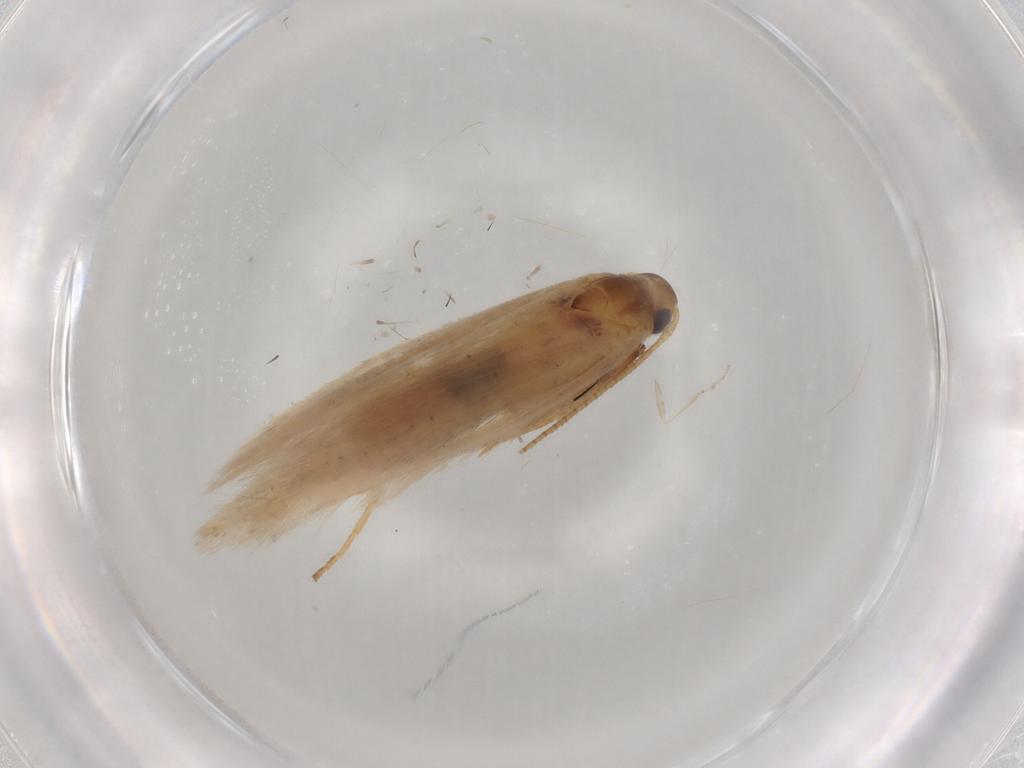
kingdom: Animalia
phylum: Arthropoda
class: Insecta
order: Lepidoptera
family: Gelechiidae
